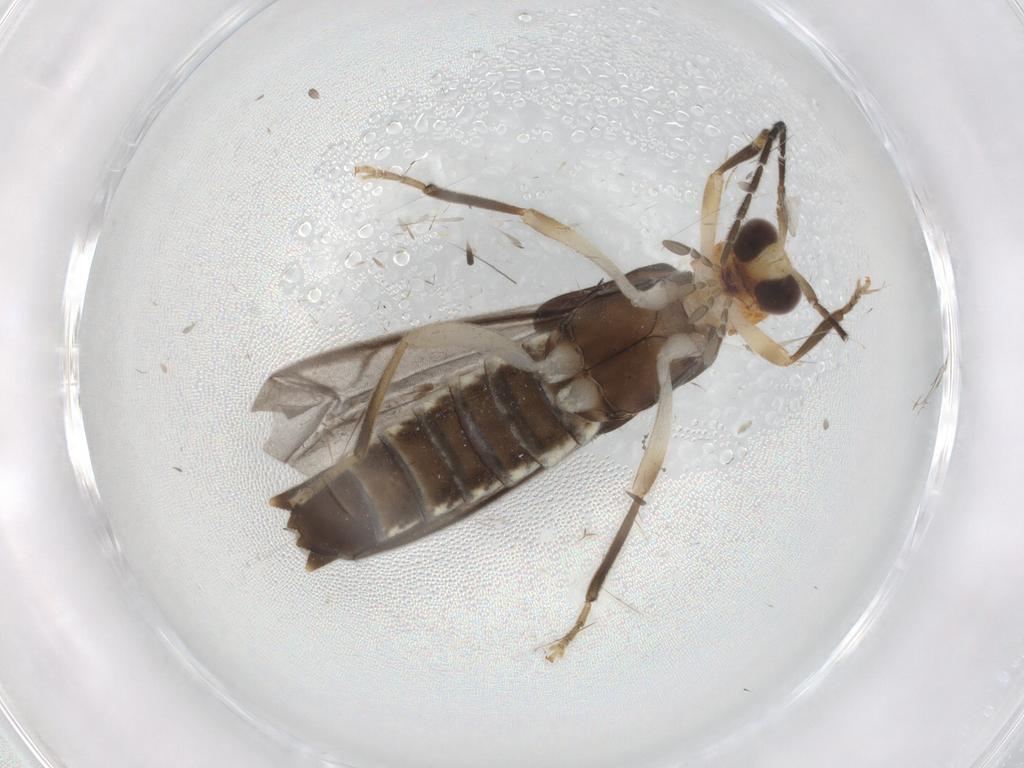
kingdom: Animalia
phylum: Arthropoda
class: Insecta
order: Coleoptera
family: Cantharidae
